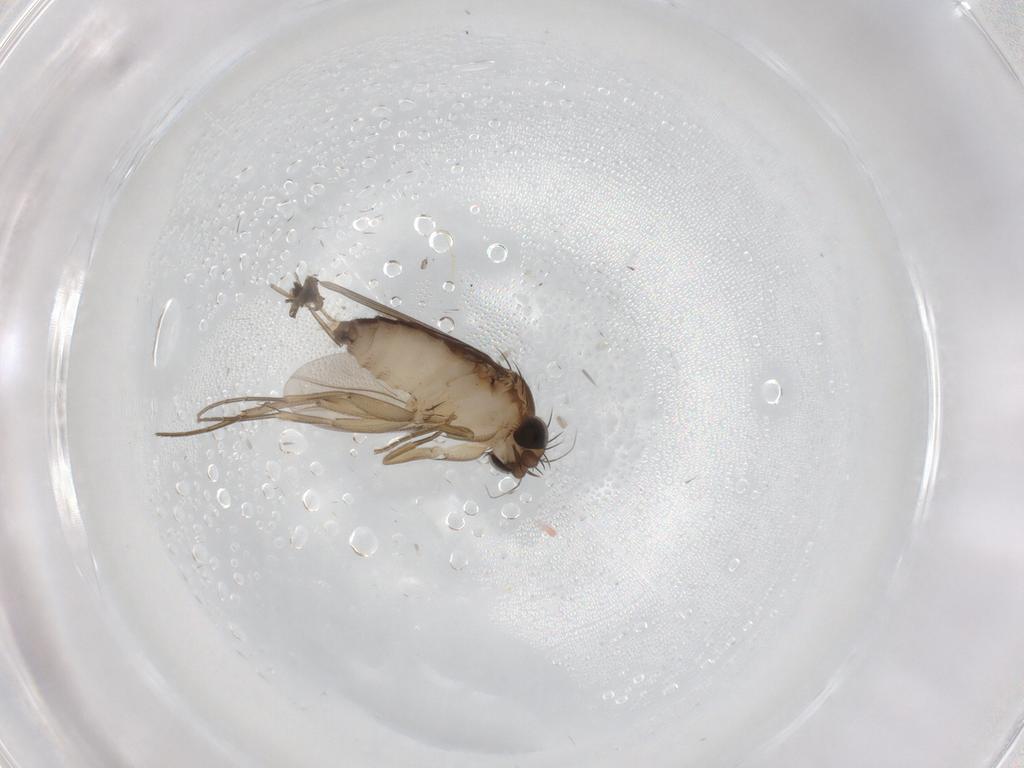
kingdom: Animalia
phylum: Arthropoda
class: Insecta
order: Diptera
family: Phoridae
